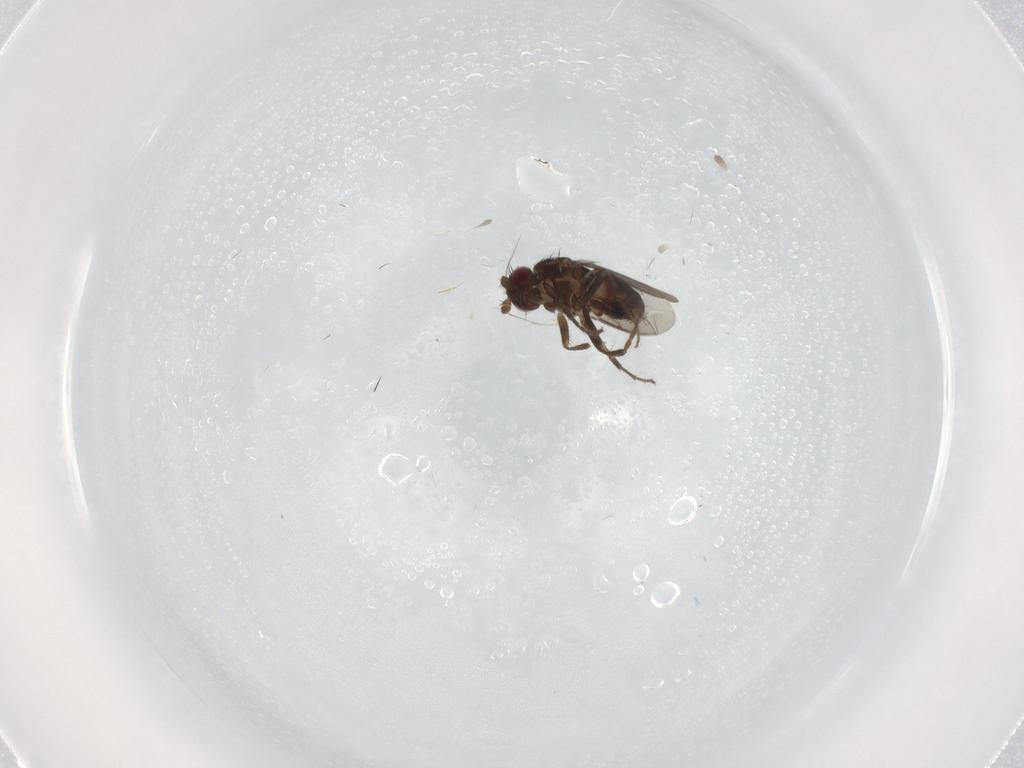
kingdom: Animalia
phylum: Arthropoda
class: Insecta
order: Diptera
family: Sphaeroceridae
